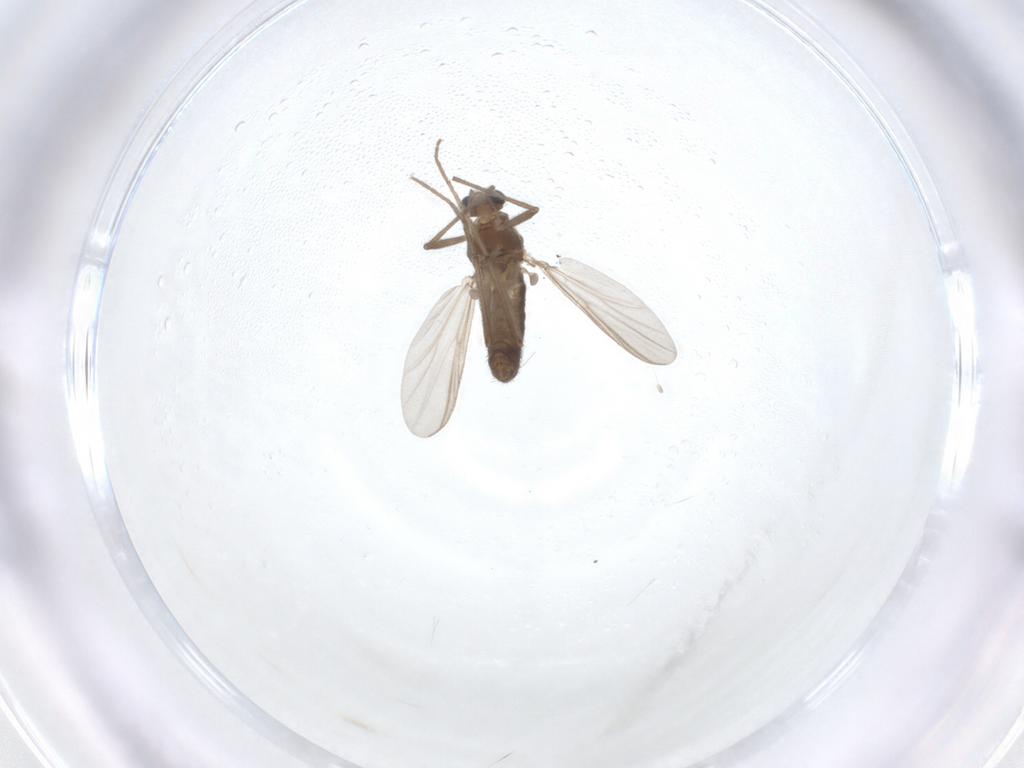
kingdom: Animalia
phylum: Arthropoda
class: Insecta
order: Diptera
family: Chironomidae
